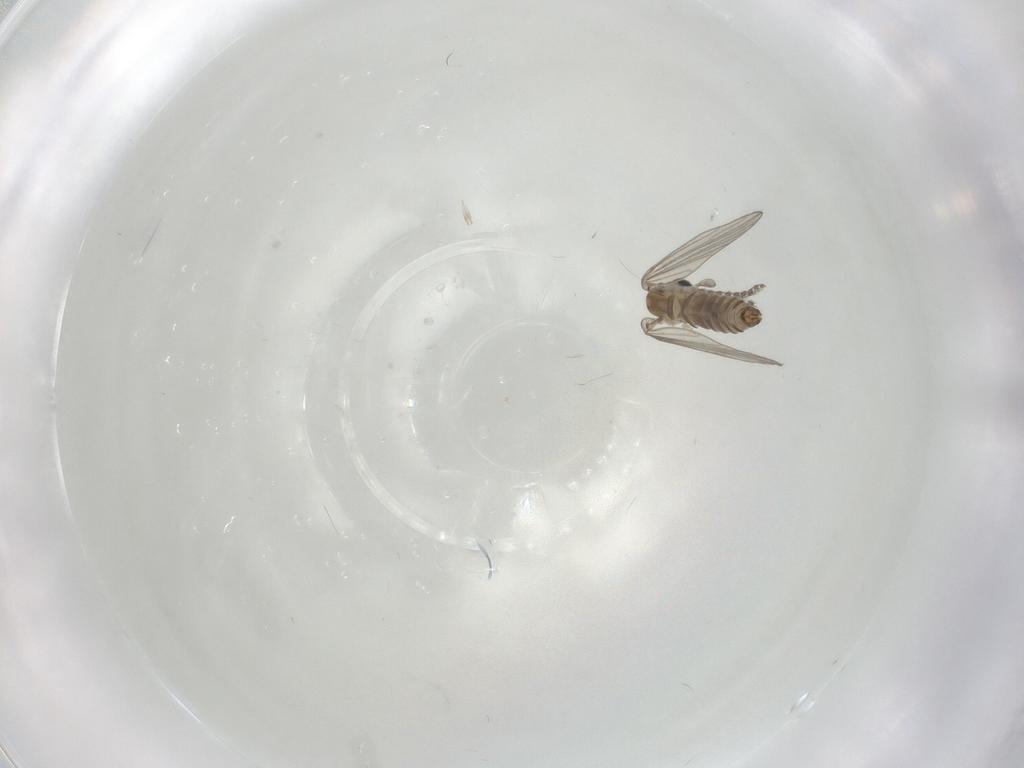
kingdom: Animalia
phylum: Arthropoda
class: Insecta
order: Diptera
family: Psychodidae
